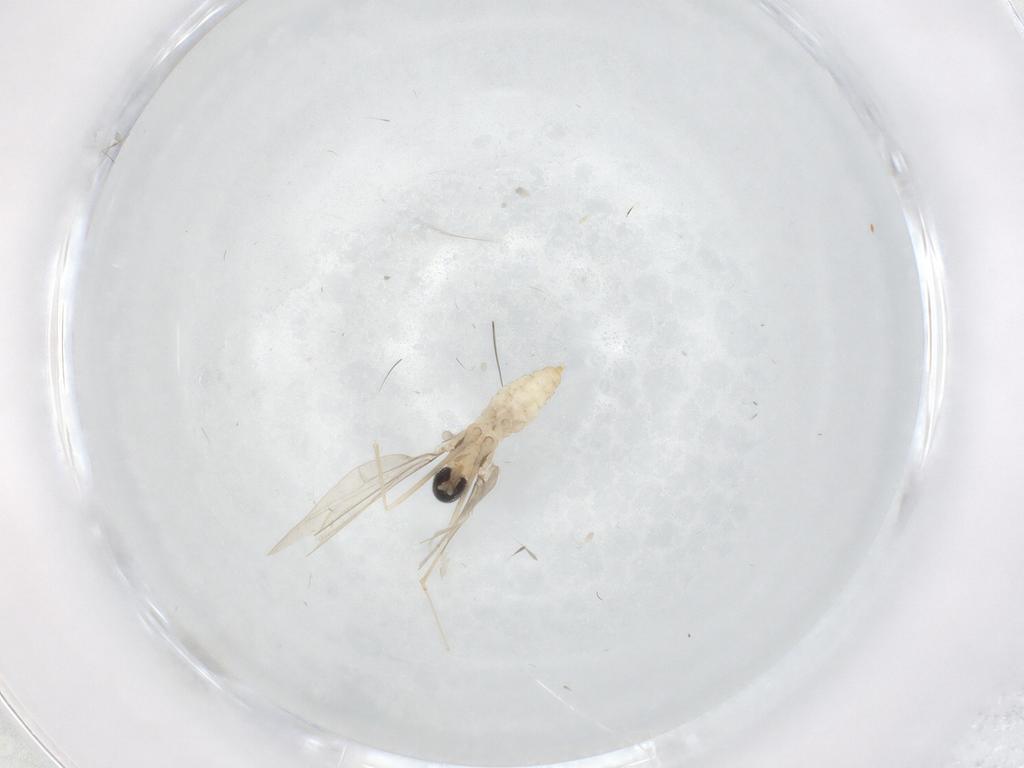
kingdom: Animalia
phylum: Arthropoda
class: Insecta
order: Diptera
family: Cecidomyiidae
